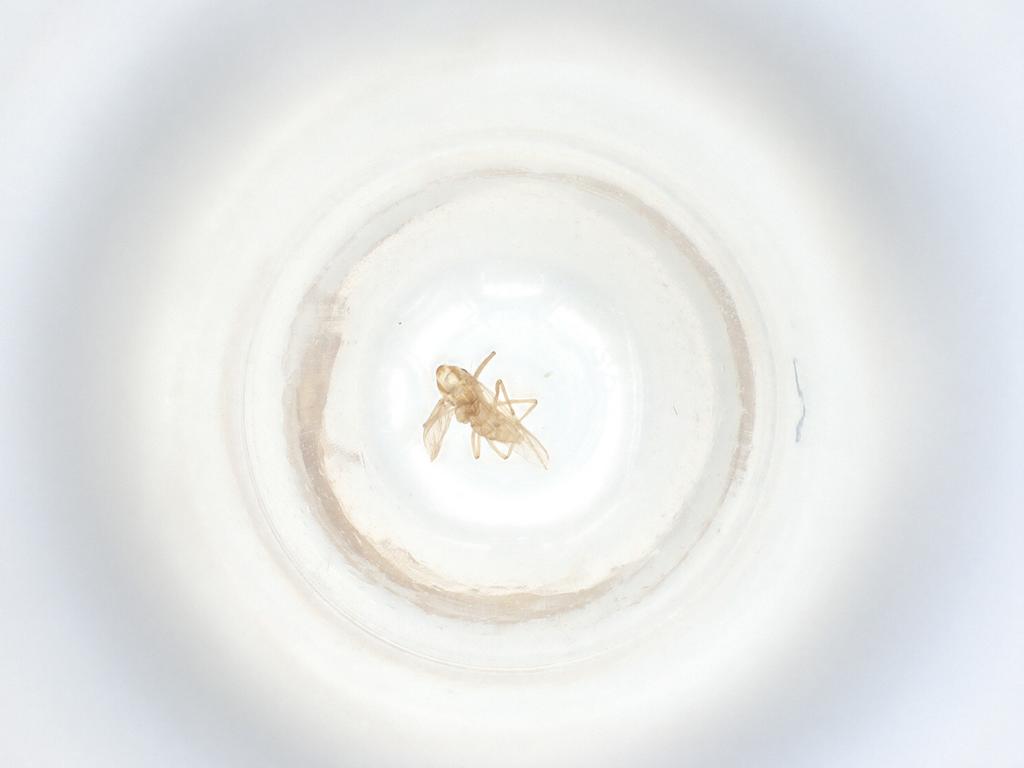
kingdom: Animalia
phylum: Arthropoda
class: Insecta
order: Diptera
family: Chironomidae
